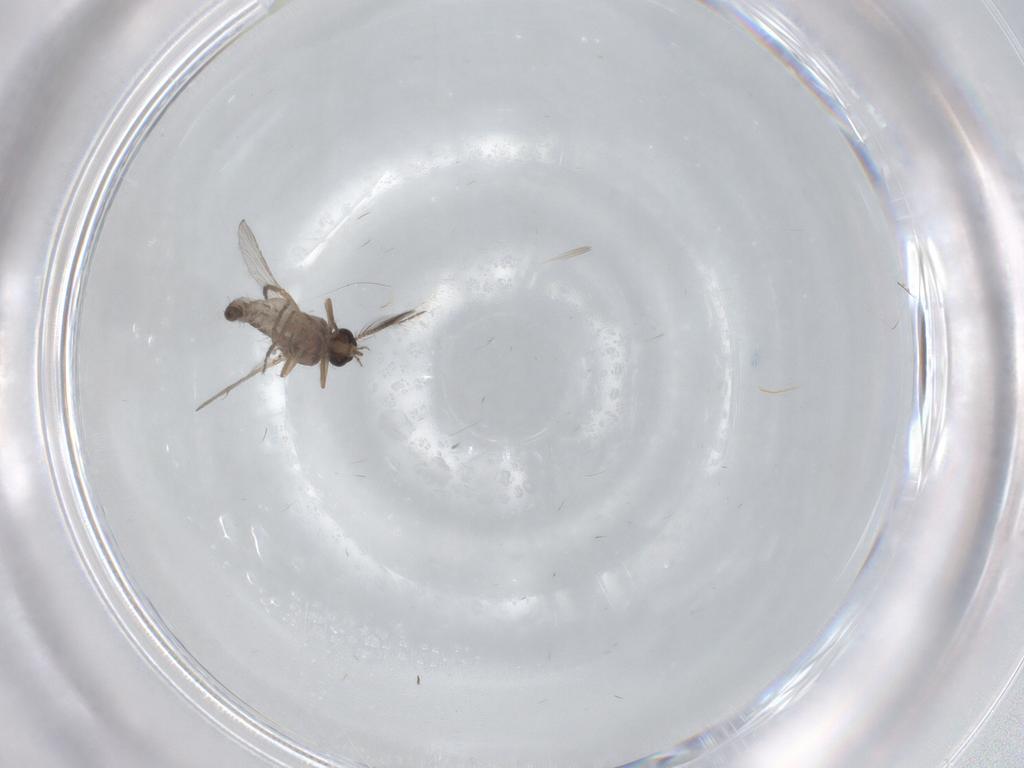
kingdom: Animalia
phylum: Arthropoda
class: Insecta
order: Diptera
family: Ceratopogonidae
